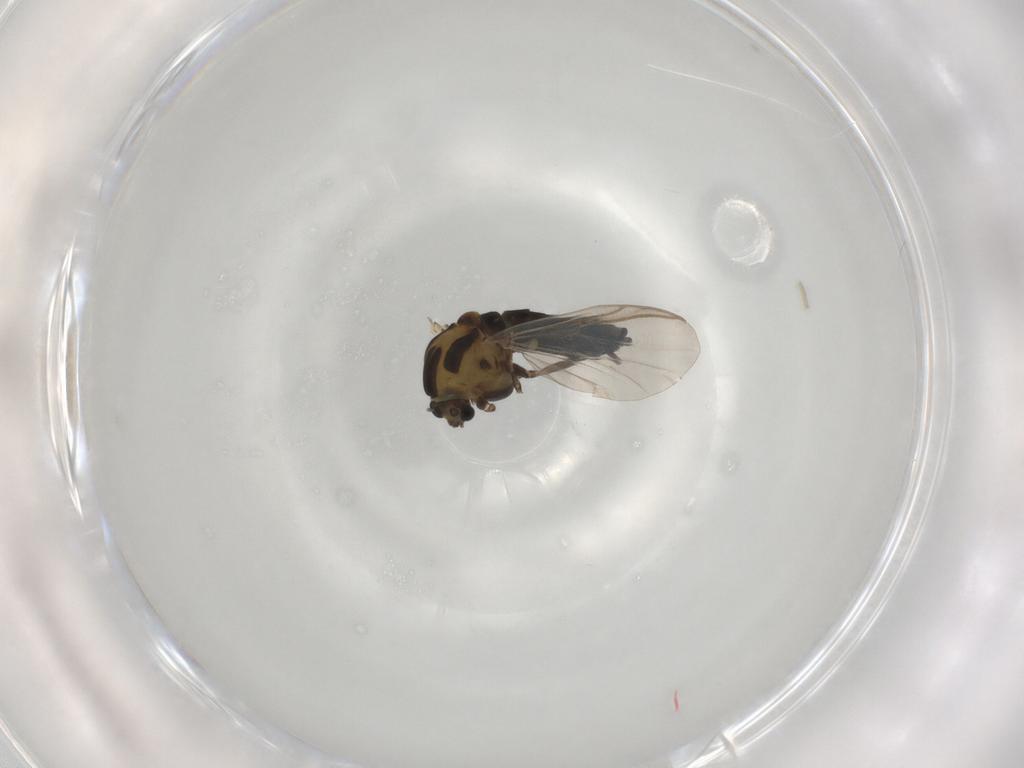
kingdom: Animalia
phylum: Arthropoda
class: Insecta
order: Diptera
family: Chironomidae
